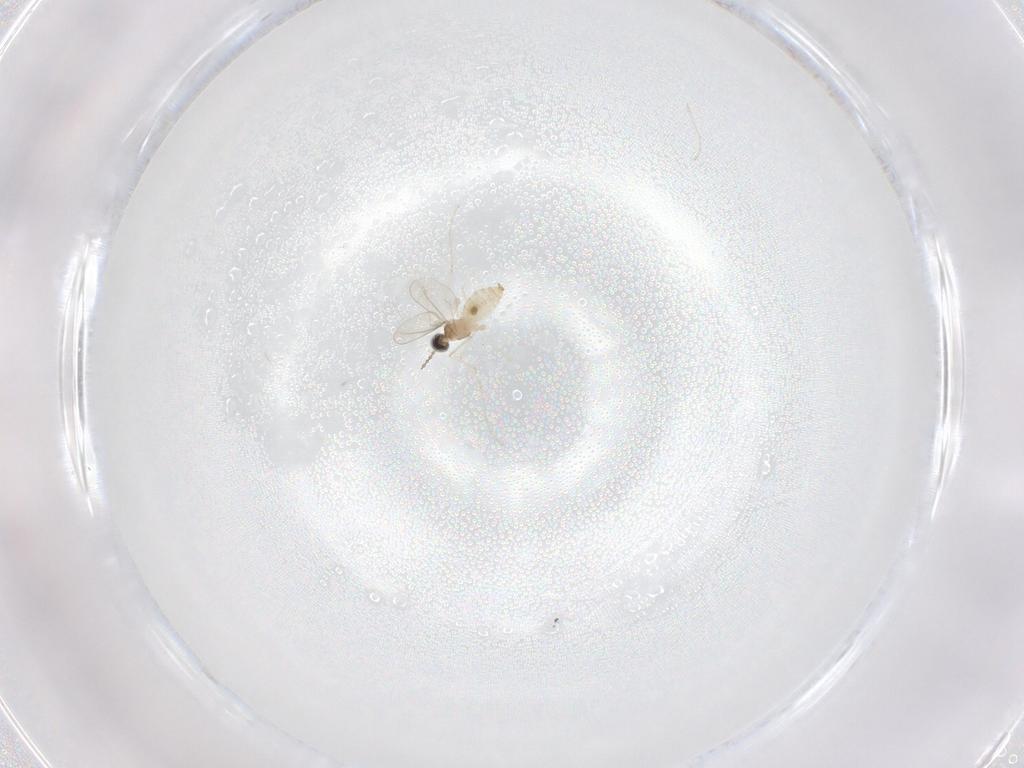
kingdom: Animalia
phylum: Arthropoda
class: Insecta
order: Diptera
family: Cecidomyiidae
